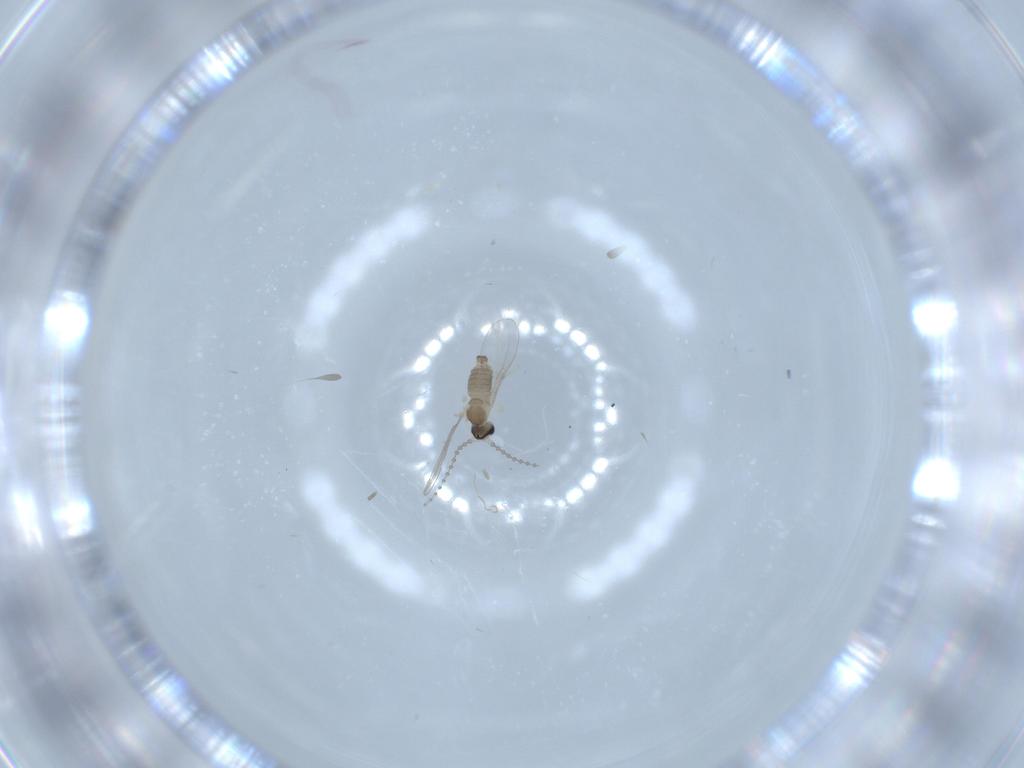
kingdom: Animalia
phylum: Arthropoda
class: Insecta
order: Diptera
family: Cecidomyiidae
